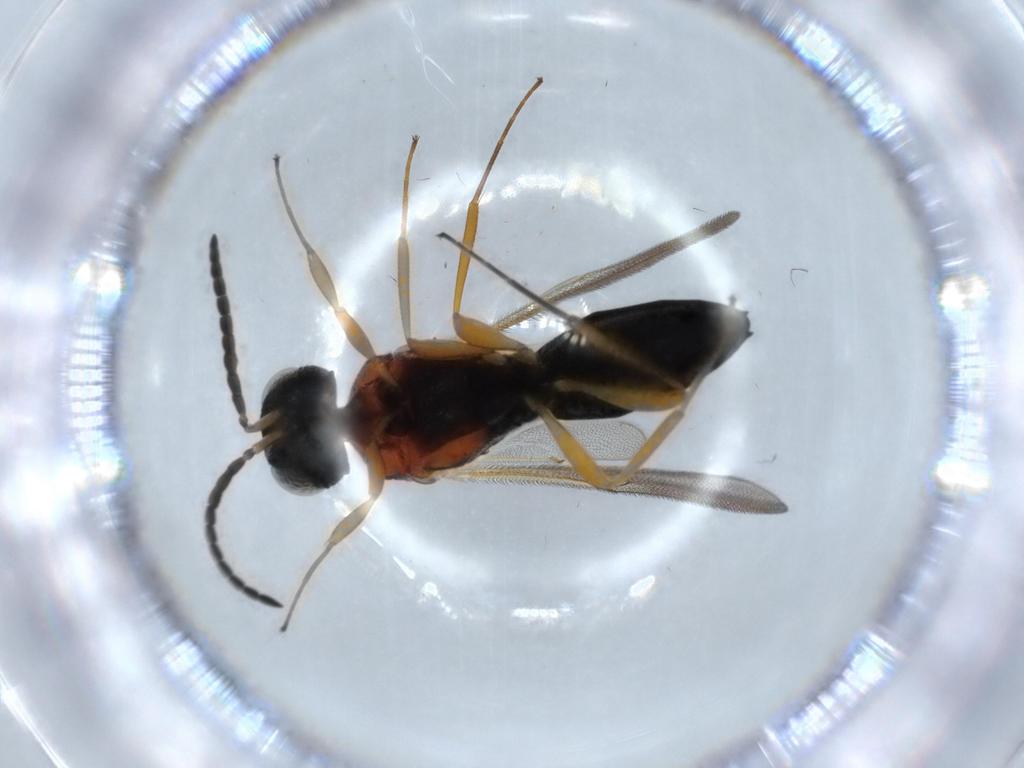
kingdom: Animalia
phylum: Arthropoda
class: Insecta
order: Hymenoptera
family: Scelionidae
